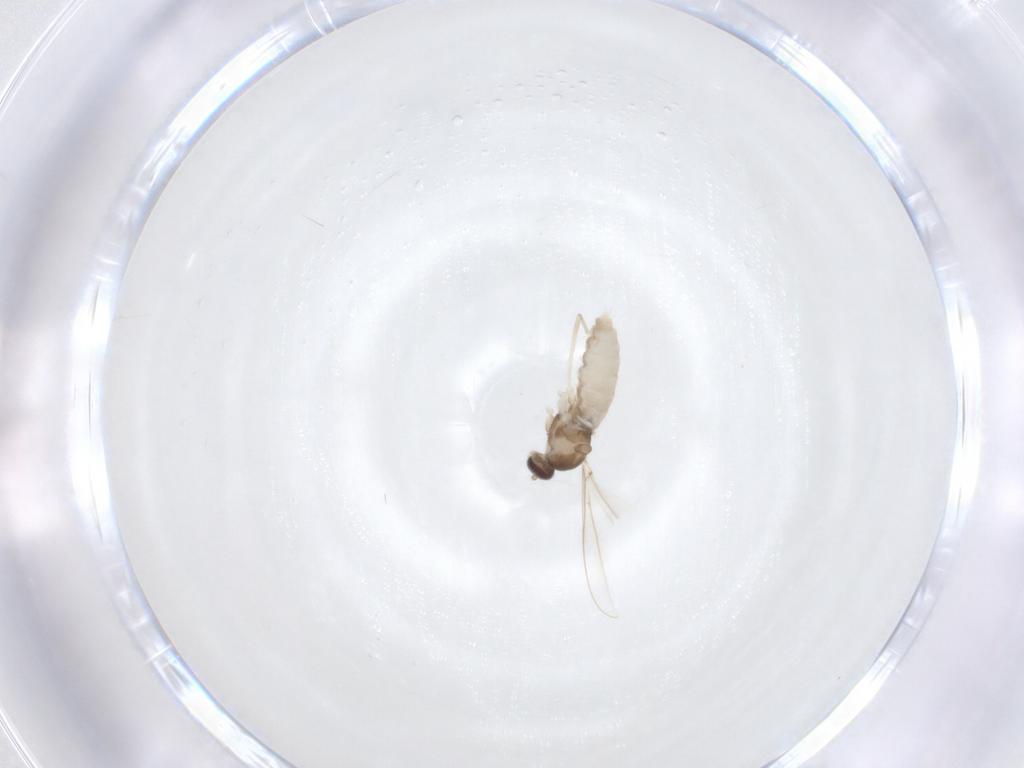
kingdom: Animalia
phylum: Arthropoda
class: Insecta
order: Diptera
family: Cecidomyiidae
